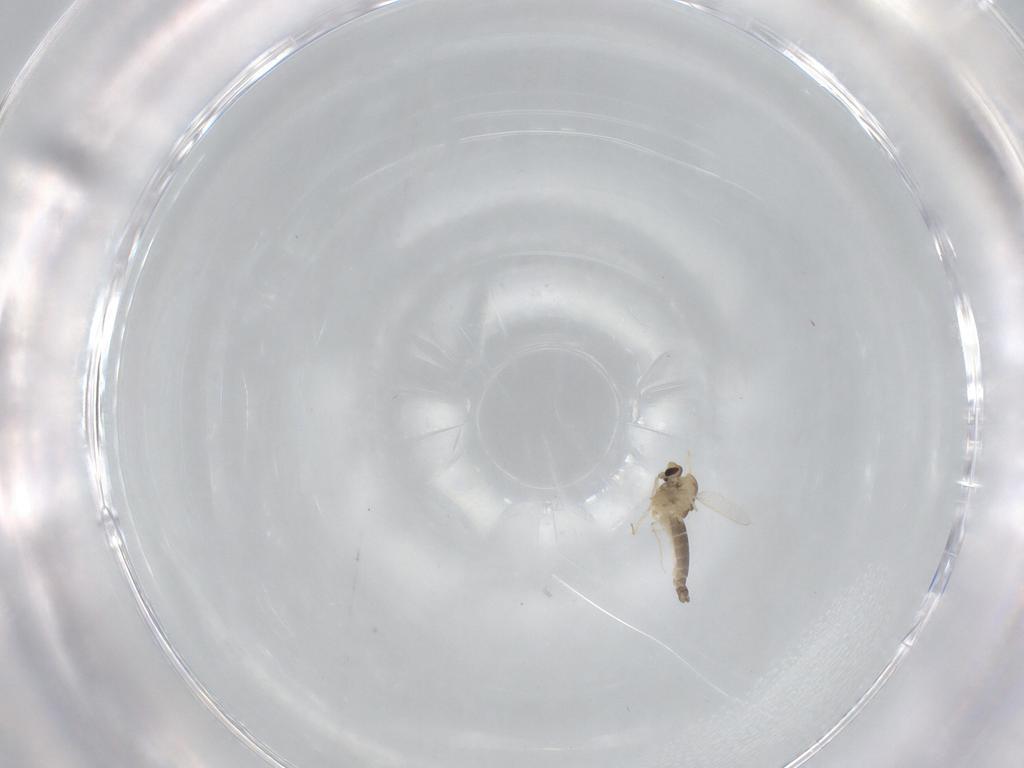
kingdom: Animalia
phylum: Arthropoda
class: Insecta
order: Diptera
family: Chironomidae
